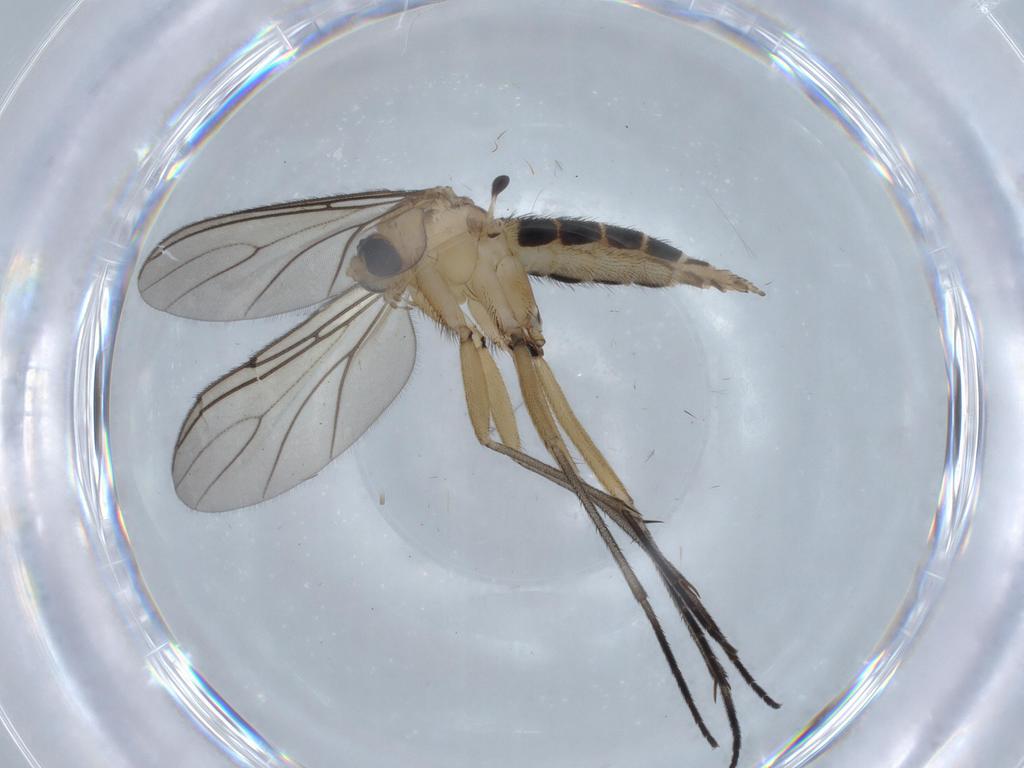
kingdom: Animalia
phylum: Arthropoda
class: Insecta
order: Diptera
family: Sciaridae
